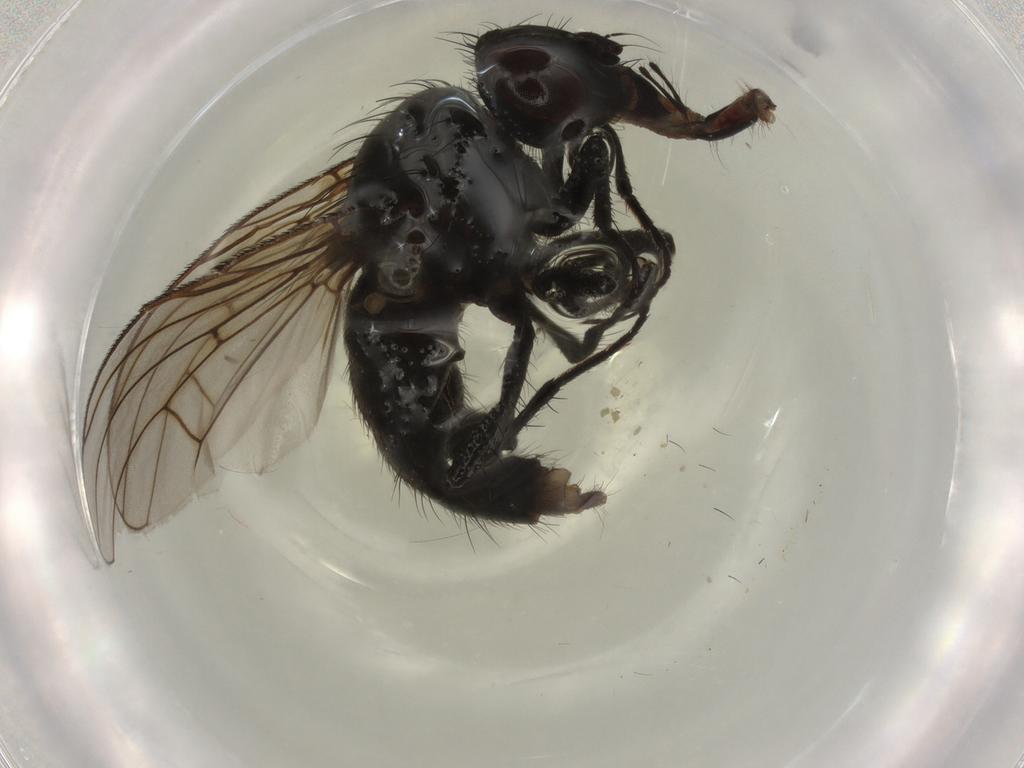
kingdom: Animalia
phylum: Arthropoda
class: Insecta
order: Diptera
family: Muscidae
